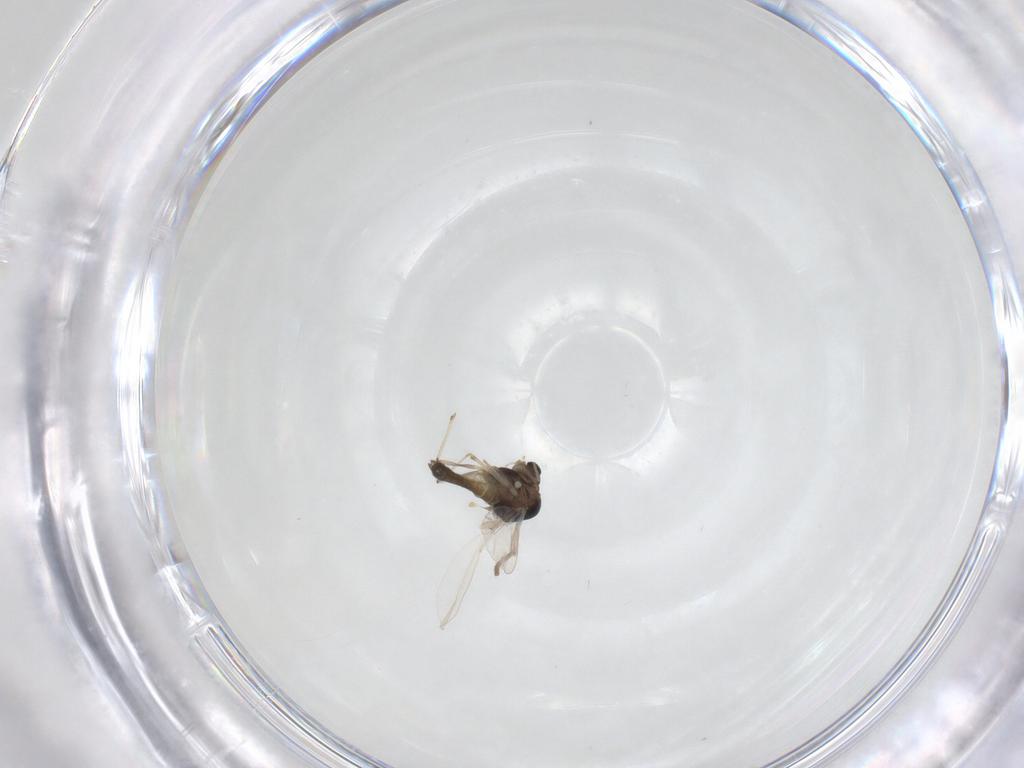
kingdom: Animalia
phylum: Arthropoda
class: Insecta
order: Diptera
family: Psychodidae
